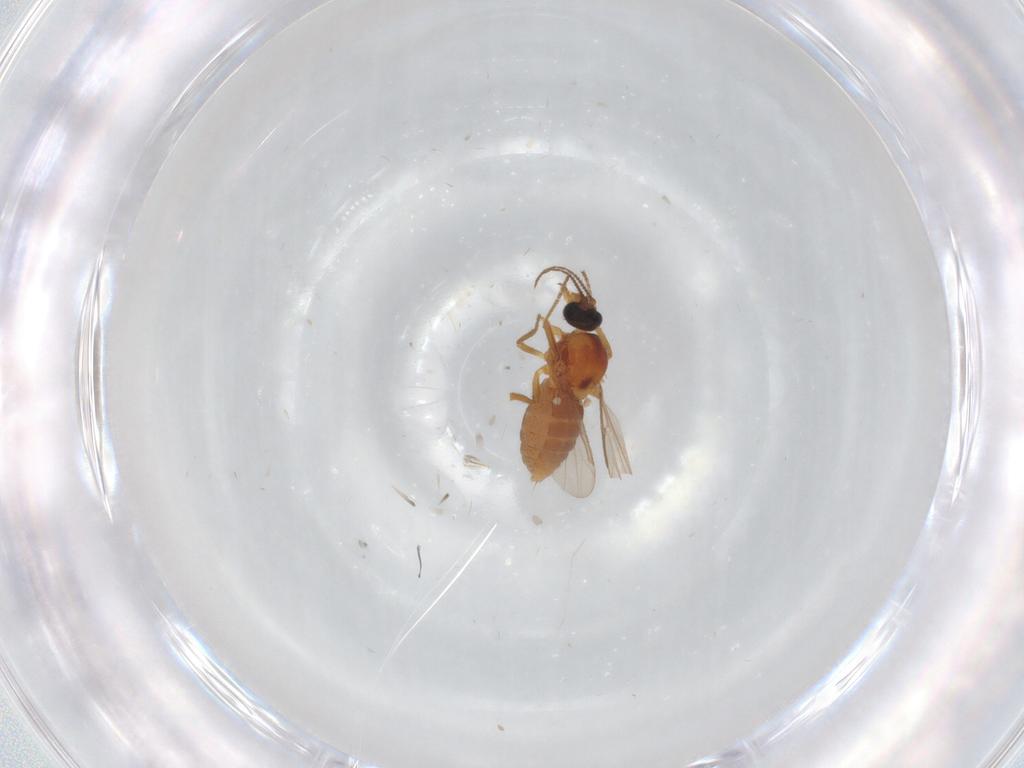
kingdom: Animalia
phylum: Arthropoda
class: Insecta
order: Diptera
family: Ceratopogonidae
